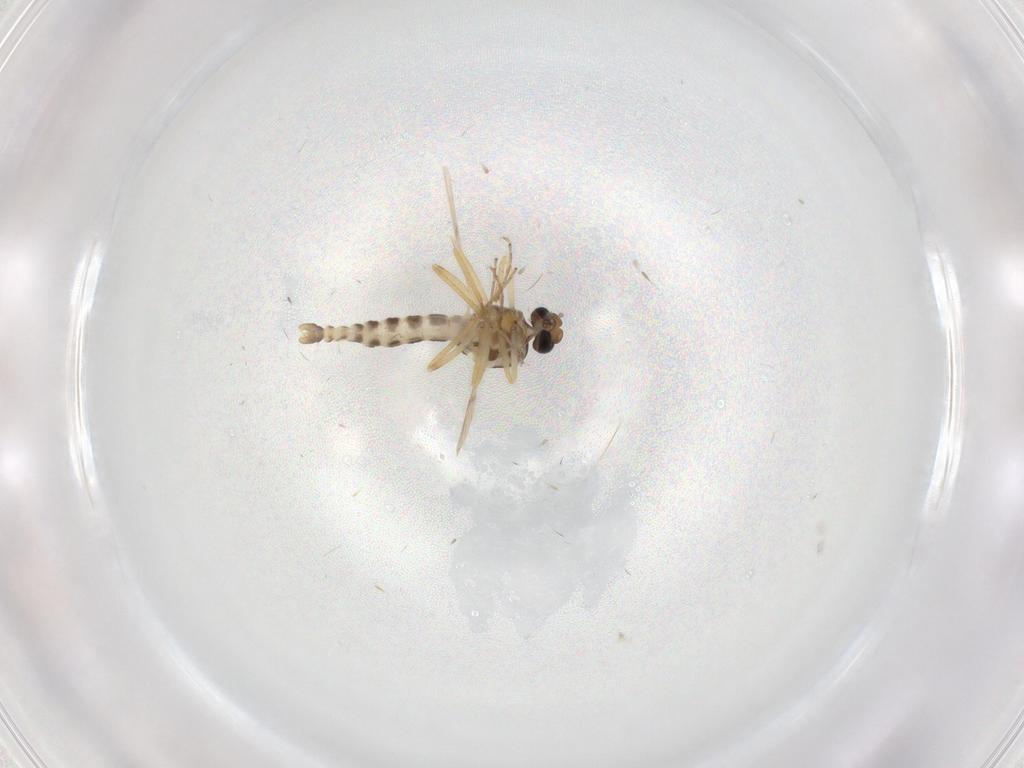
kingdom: Animalia
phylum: Arthropoda
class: Insecta
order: Diptera
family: Ceratopogonidae
